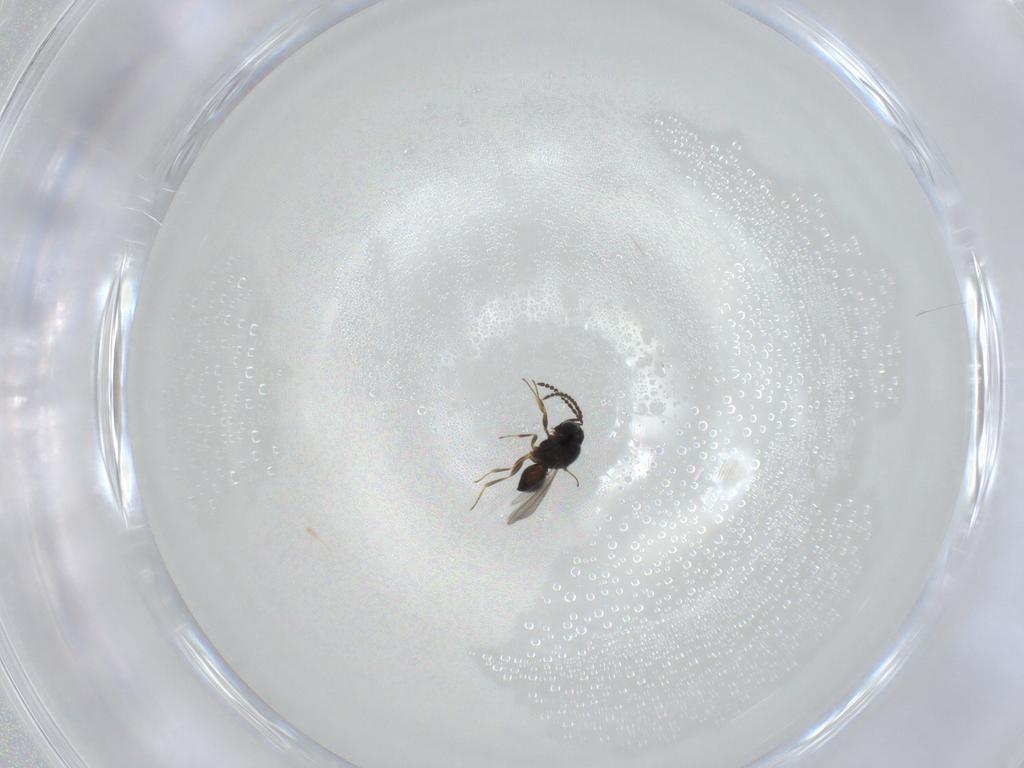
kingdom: Animalia
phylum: Arthropoda
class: Insecta
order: Hymenoptera
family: Scelionidae
